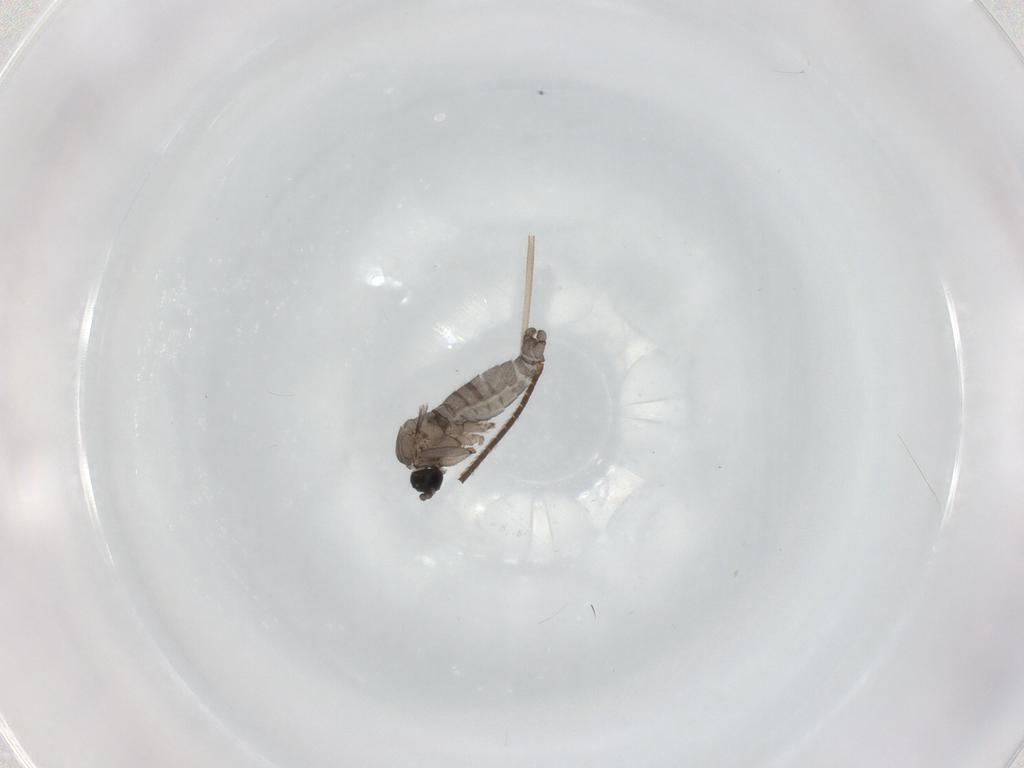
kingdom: Animalia
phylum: Arthropoda
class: Insecta
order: Diptera
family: Sciaridae
